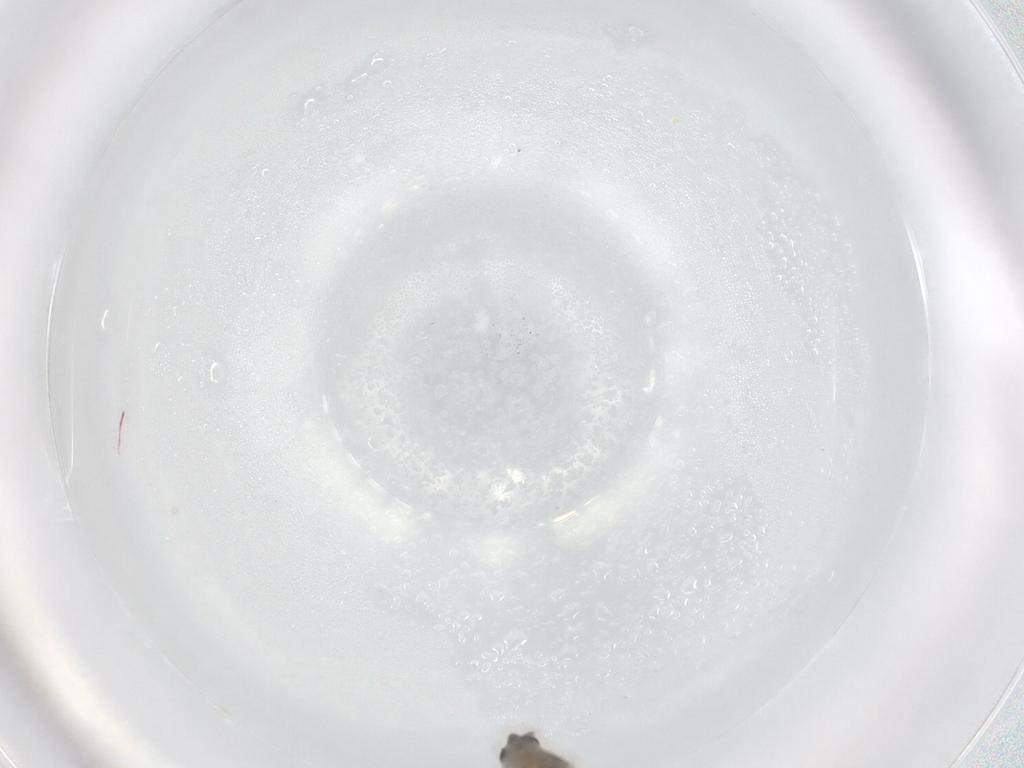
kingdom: Animalia
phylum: Arthropoda
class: Insecta
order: Diptera
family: Chironomidae
